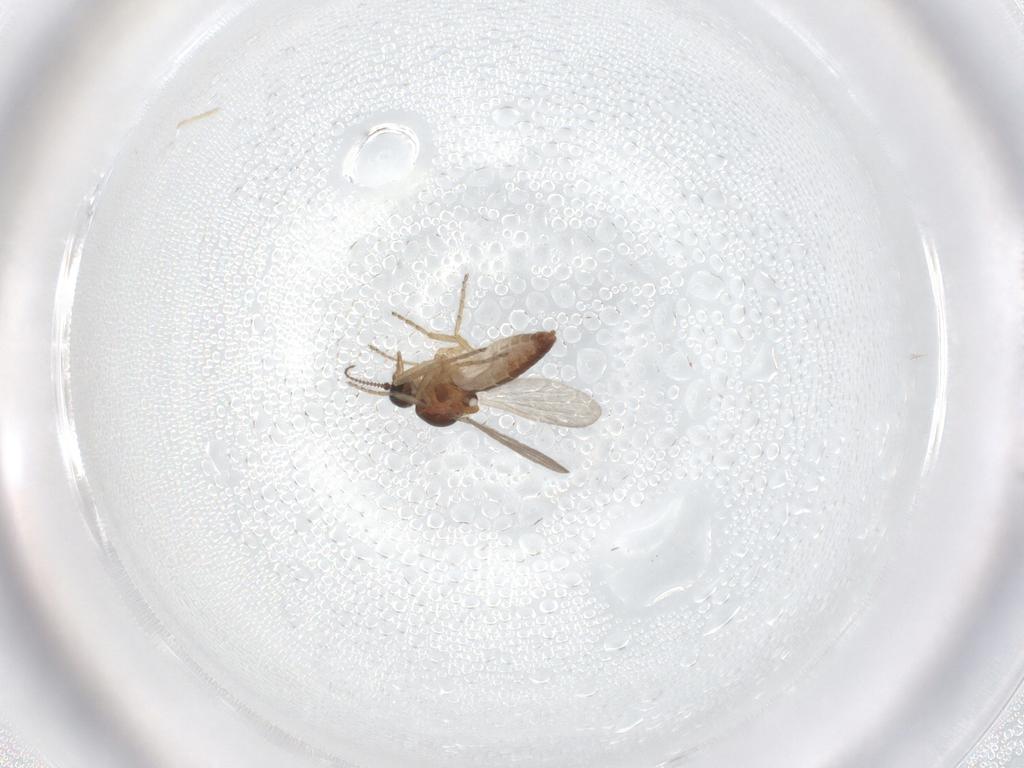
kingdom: Animalia
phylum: Arthropoda
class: Insecta
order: Diptera
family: Ceratopogonidae
